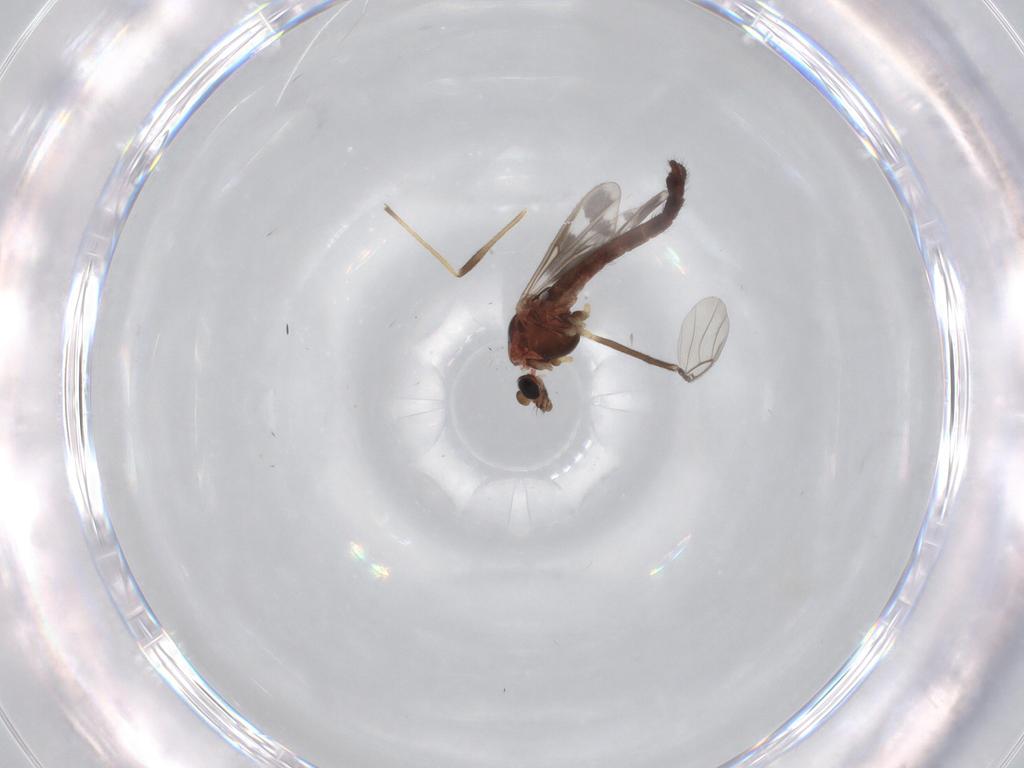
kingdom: Animalia
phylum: Arthropoda
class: Insecta
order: Diptera
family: Chironomidae
